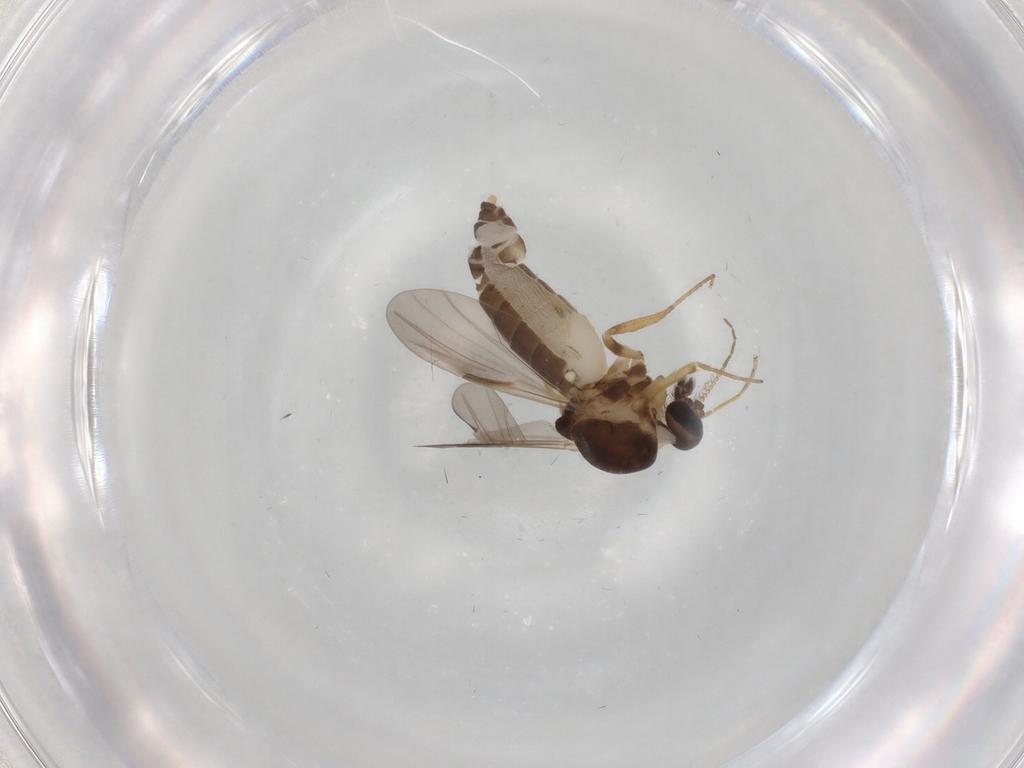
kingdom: Animalia
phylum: Arthropoda
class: Insecta
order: Diptera
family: Ceratopogonidae
